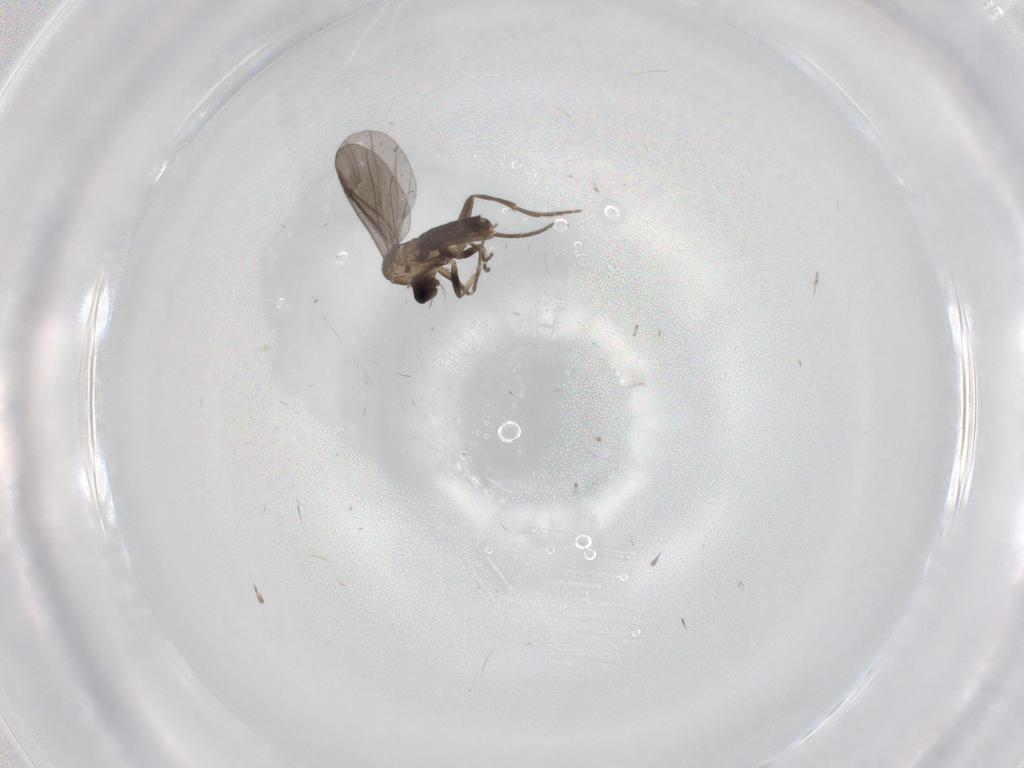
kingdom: Animalia
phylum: Arthropoda
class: Insecta
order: Diptera
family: Phoridae
